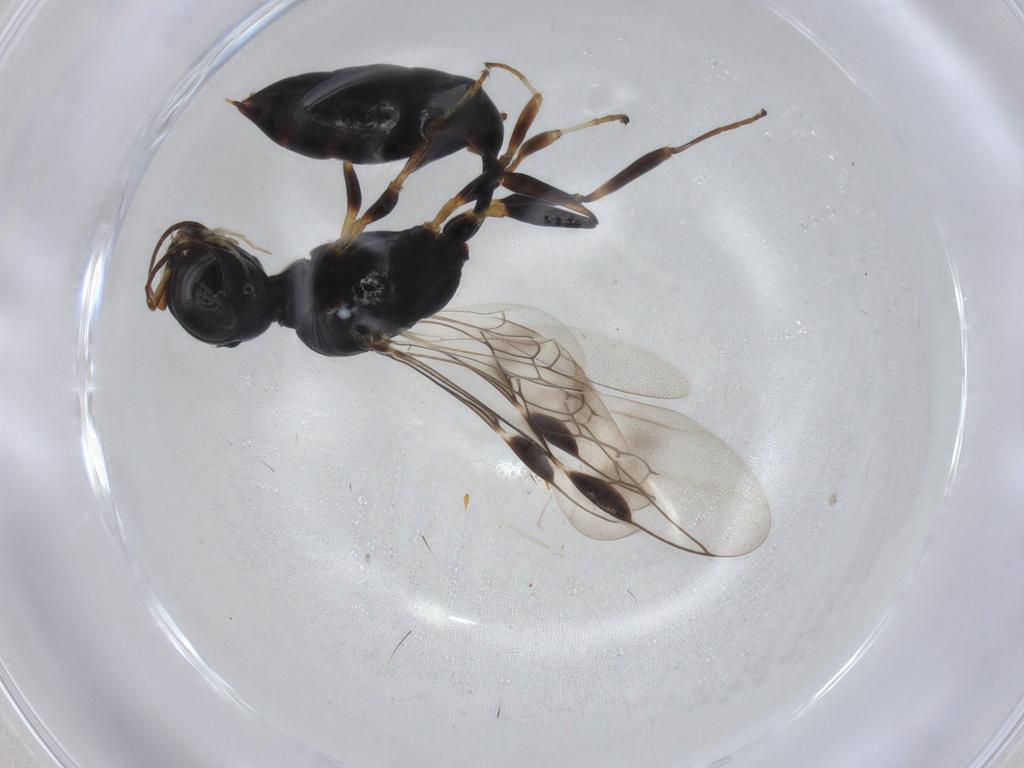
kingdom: Animalia
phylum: Arthropoda
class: Insecta
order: Hymenoptera
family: Pemphredonidae
